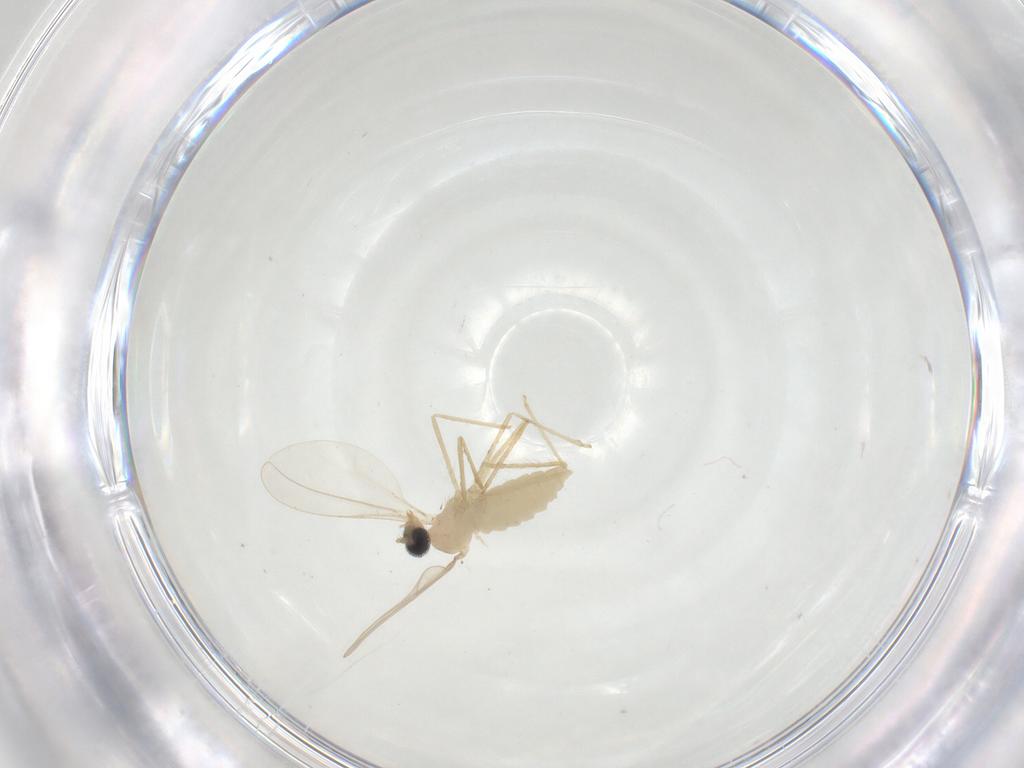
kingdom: Animalia
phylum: Arthropoda
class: Insecta
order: Diptera
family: Cecidomyiidae
